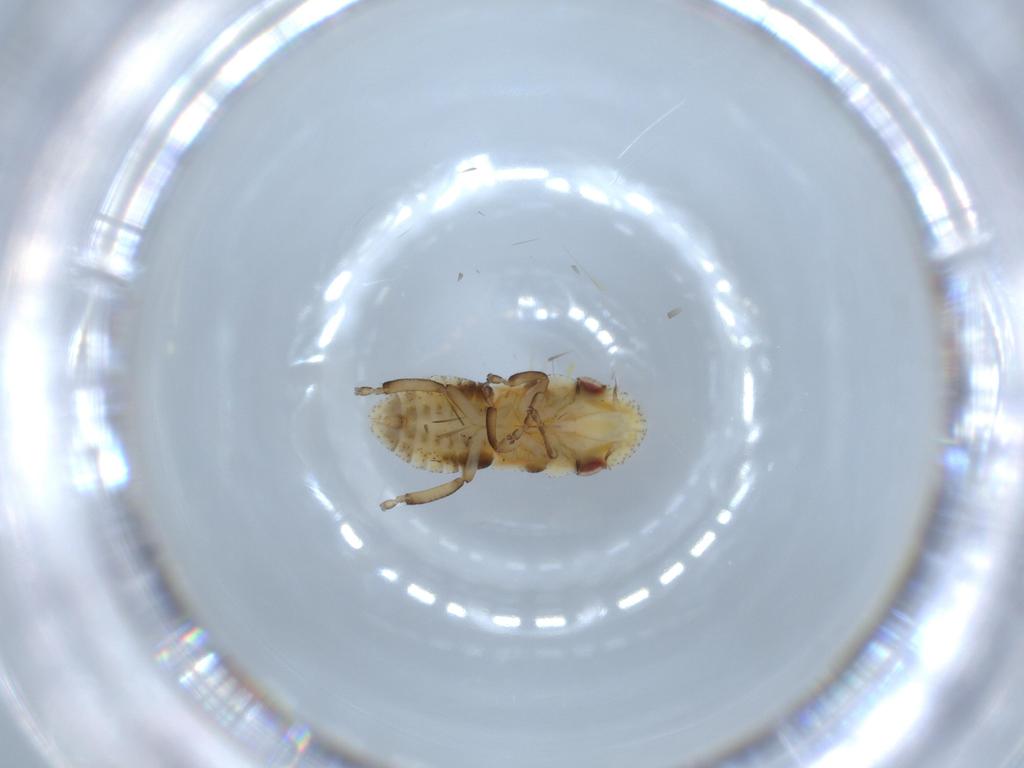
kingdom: Animalia
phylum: Arthropoda
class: Insecta
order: Hemiptera
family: Cicadellidae
